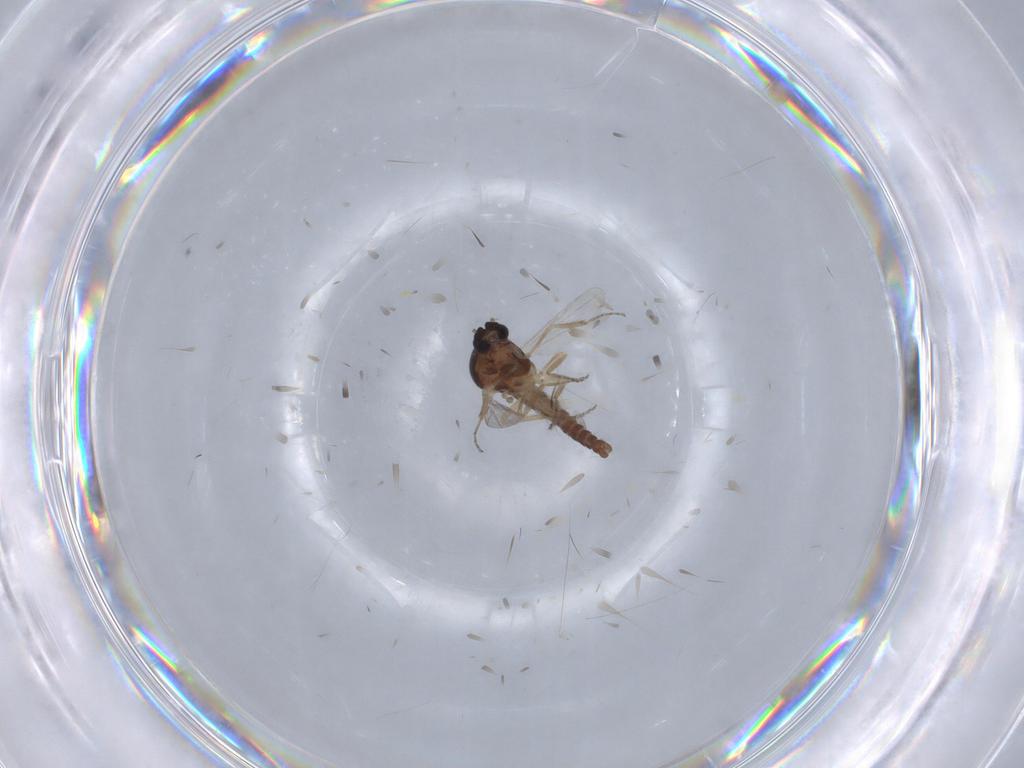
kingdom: Animalia
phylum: Arthropoda
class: Insecta
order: Diptera
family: Ceratopogonidae
